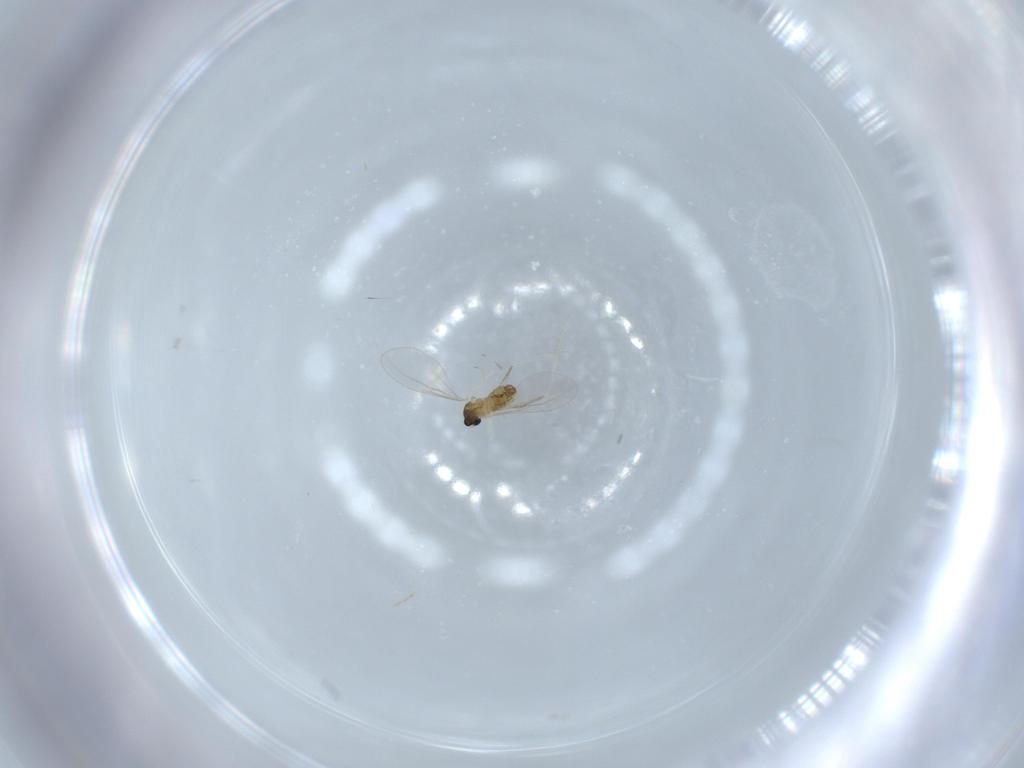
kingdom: Animalia
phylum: Arthropoda
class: Insecta
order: Diptera
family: Cecidomyiidae
